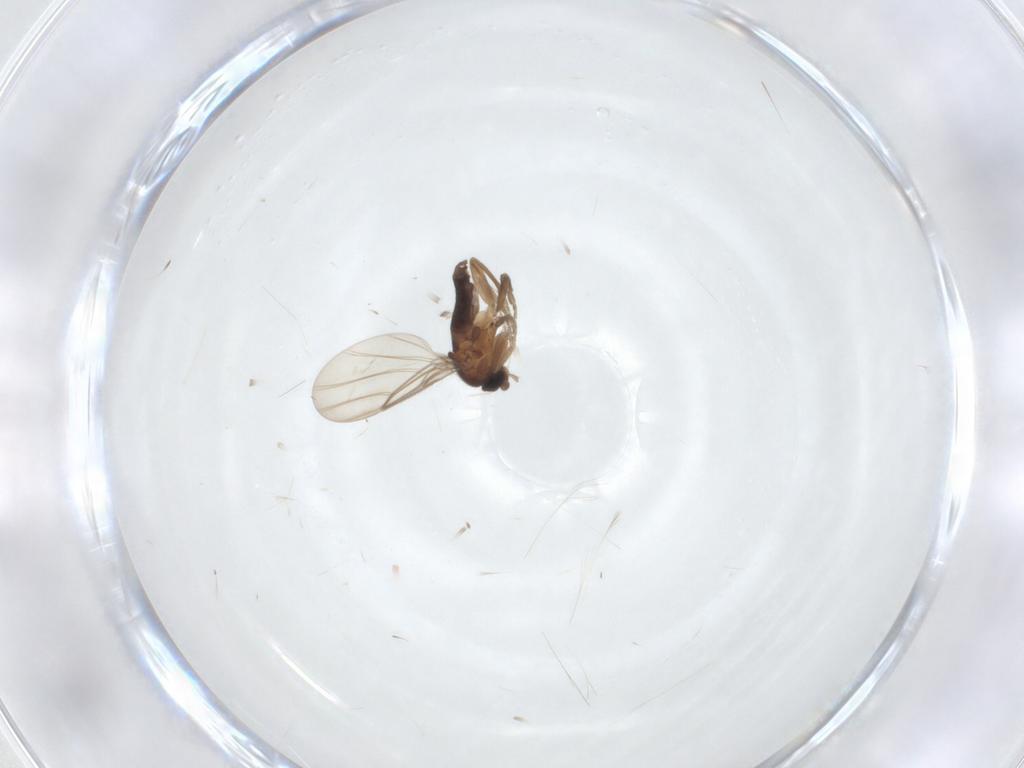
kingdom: Animalia
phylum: Arthropoda
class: Insecta
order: Diptera
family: Phoridae
